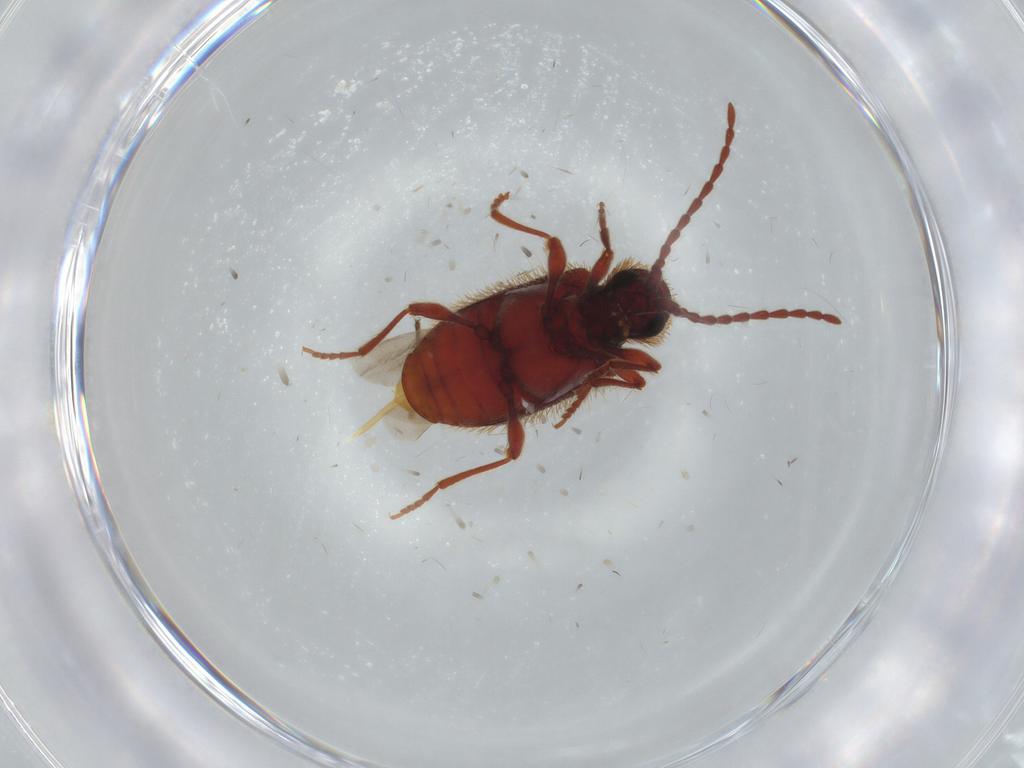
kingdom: Animalia
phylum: Arthropoda
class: Insecta
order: Coleoptera
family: Ptinidae
